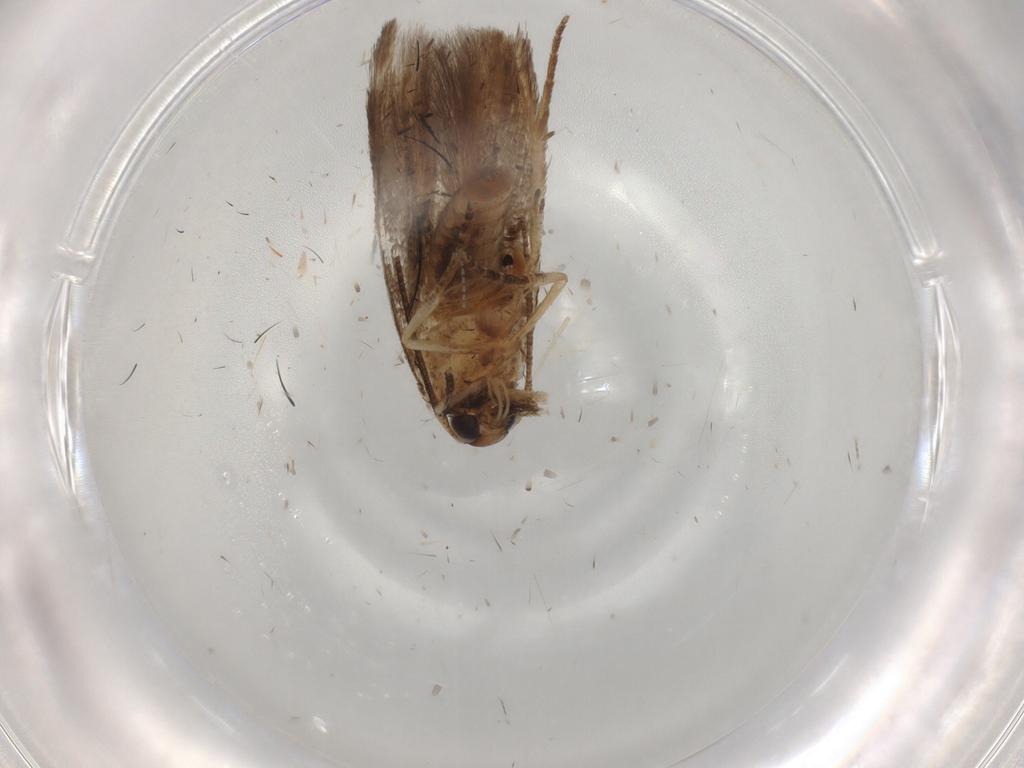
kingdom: Animalia
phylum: Arthropoda
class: Insecta
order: Lepidoptera
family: Cosmopterigidae
